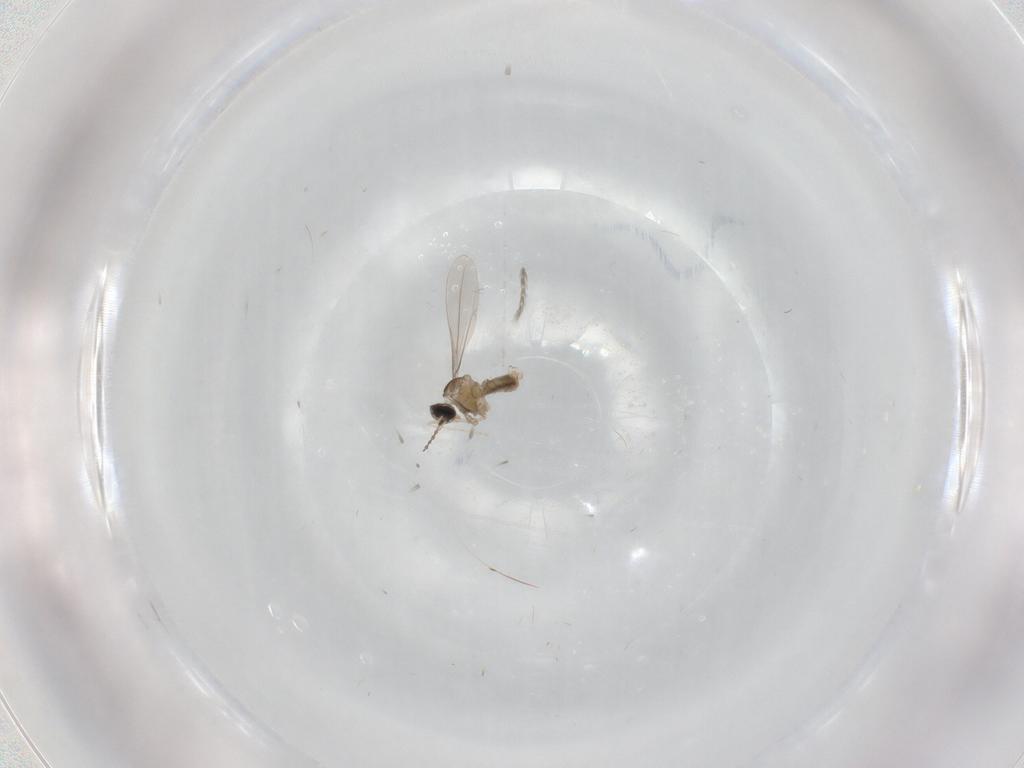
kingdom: Animalia
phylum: Arthropoda
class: Insecta
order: Diptera
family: Cecidomyiidae
